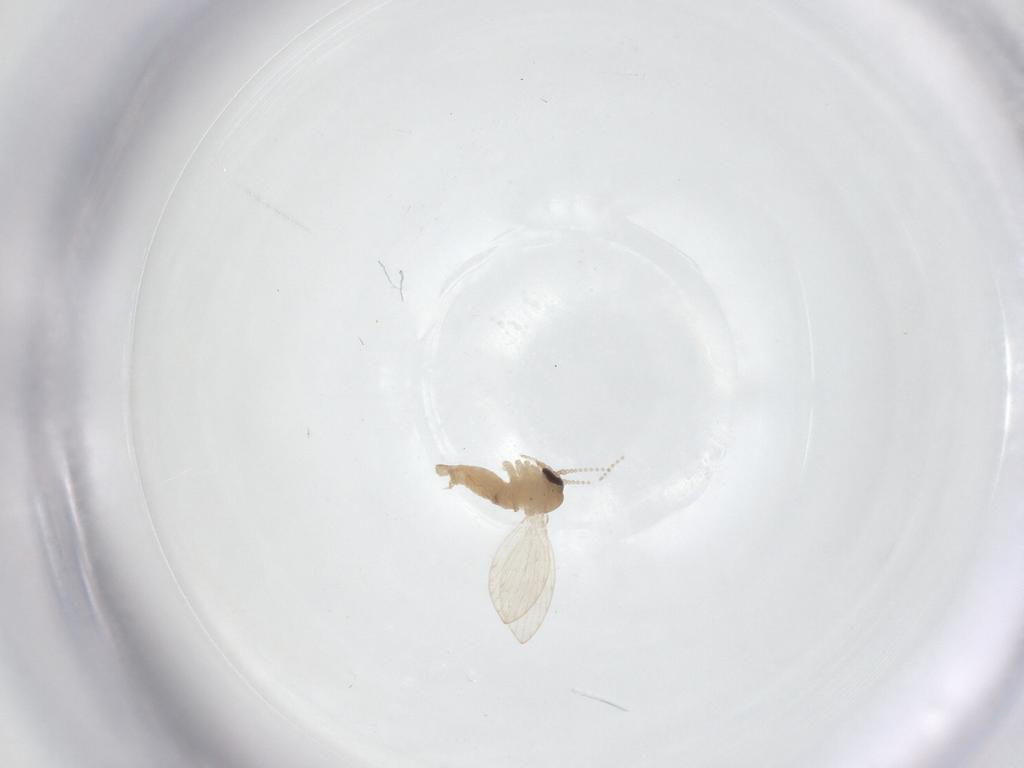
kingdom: Animalia
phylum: Arthropoda
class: Insecta
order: Diptera
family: Psychodidae
